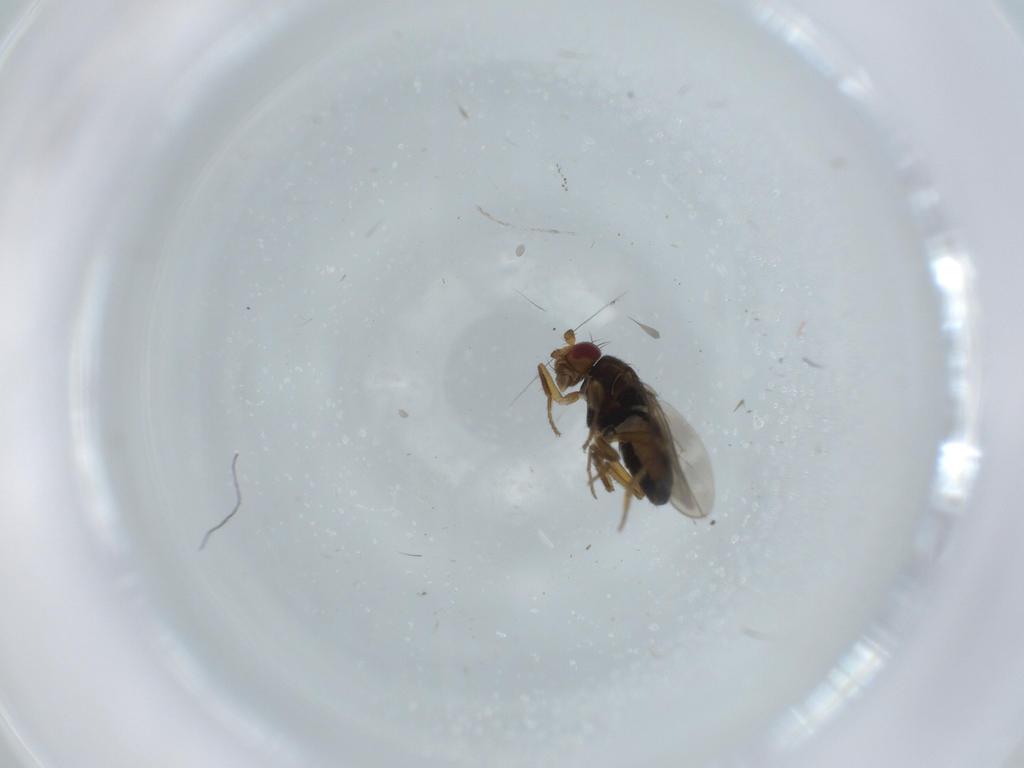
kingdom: Animalia
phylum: Arthropoda
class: Insecta
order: Diptera
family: Sphaeroceridae
